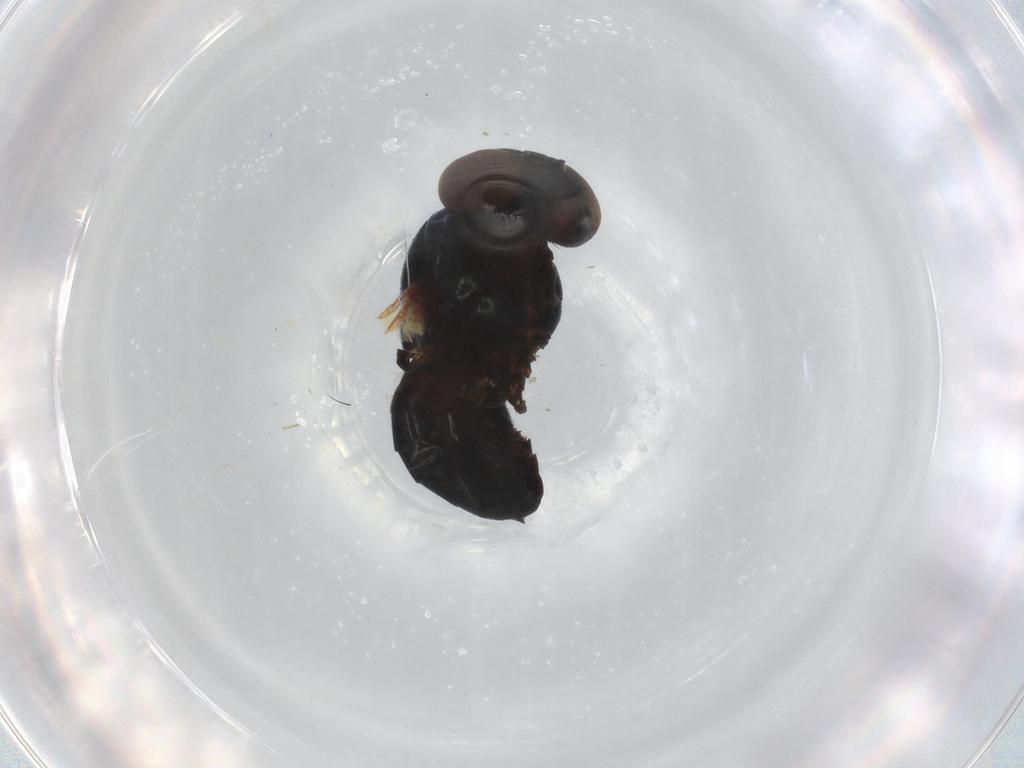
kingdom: Animalia
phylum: Arthropoda
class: Insecta
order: Diptera
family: Lonchaeidae
